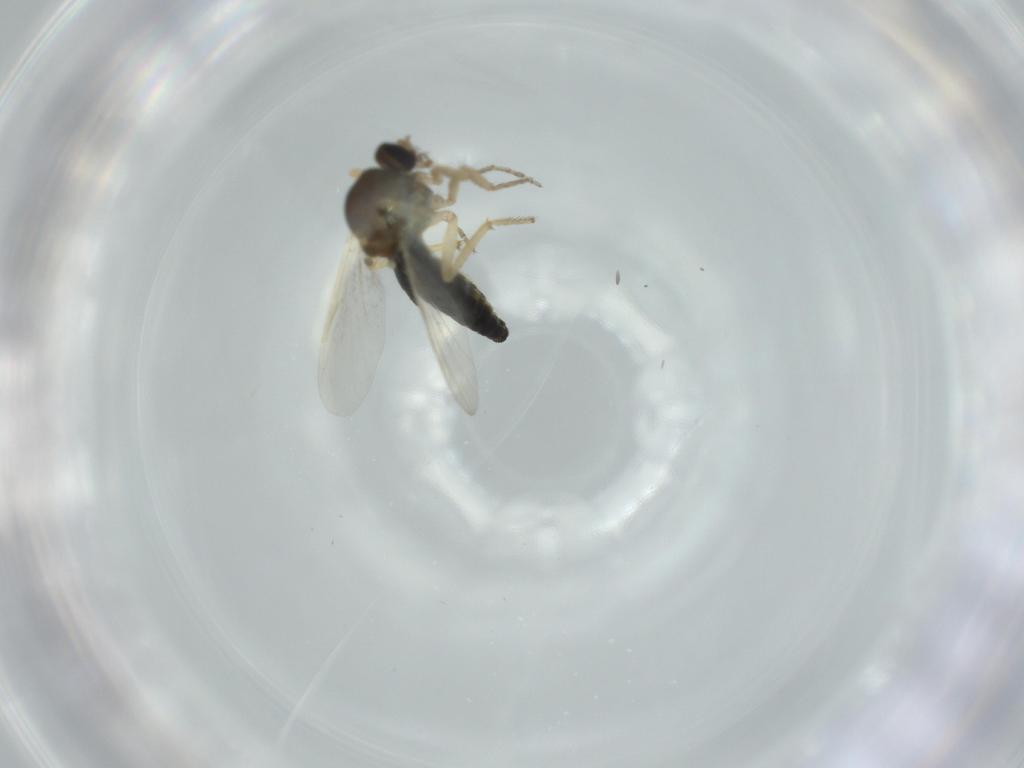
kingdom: Animalia
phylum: Arthropoda
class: Insecta
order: Diptera
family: Ceratopogonidae
